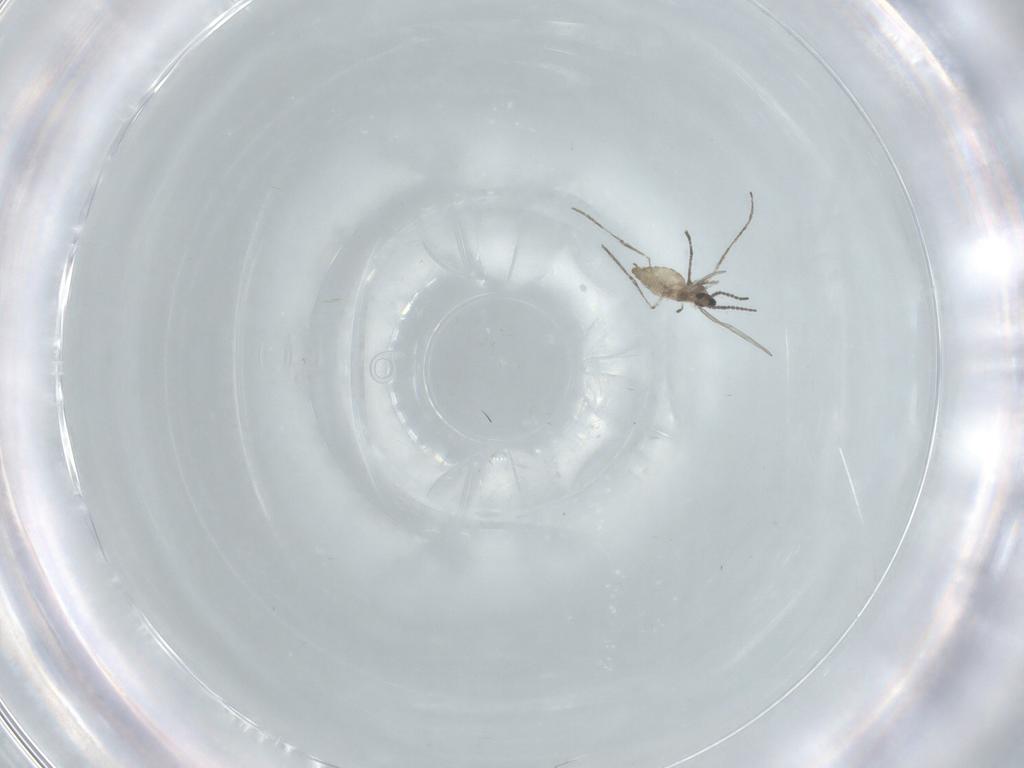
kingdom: Animalia
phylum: Arthropoda
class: Insecta
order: Diptera
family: Cecidomyiidae
